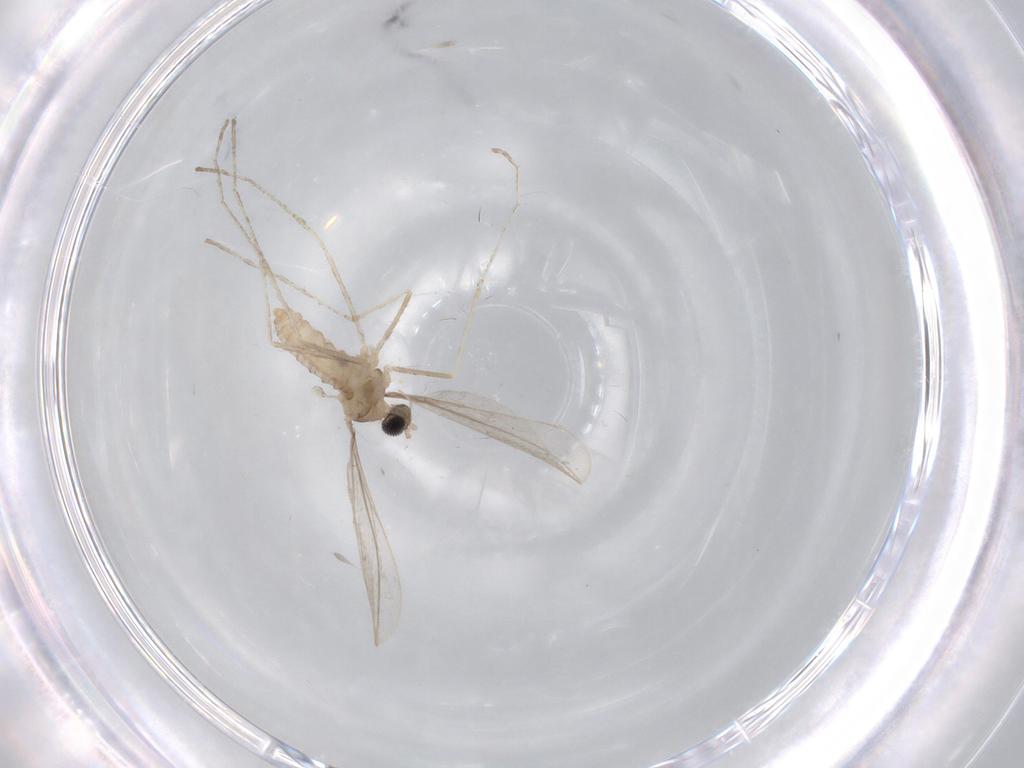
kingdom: Animalia
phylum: Arthropoda
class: Insecta
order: Diptera
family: Cecidomyiidae
